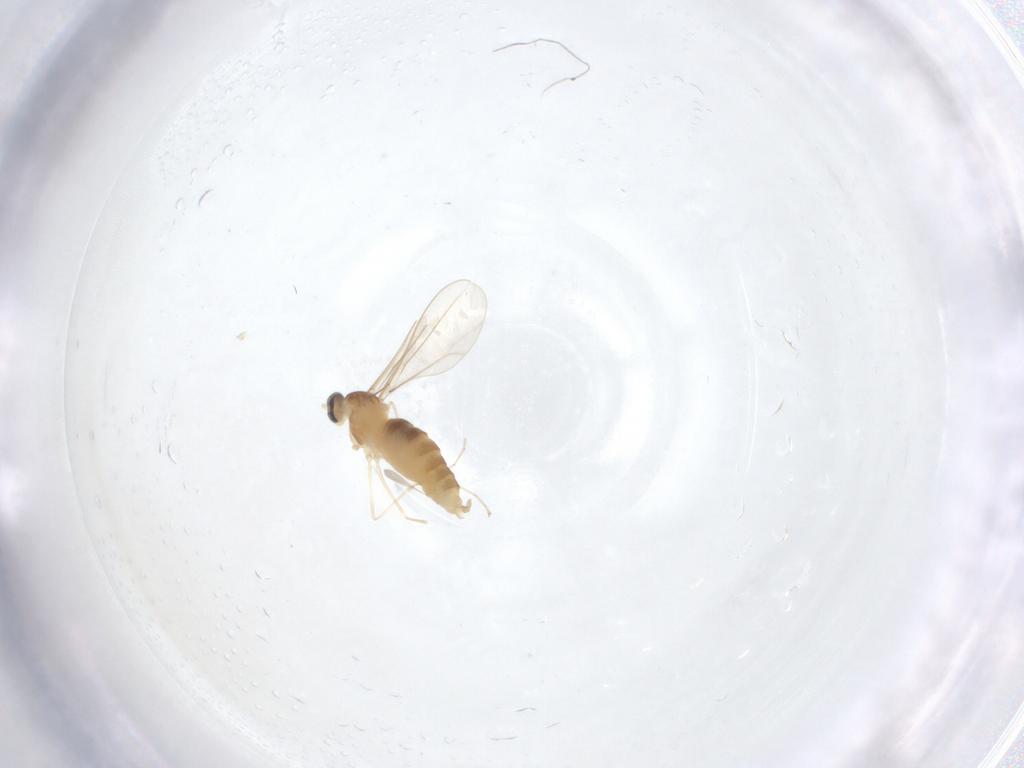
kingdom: Animalia
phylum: Arthropoda
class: Insecta
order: Diptera
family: Cecidomyiidae
